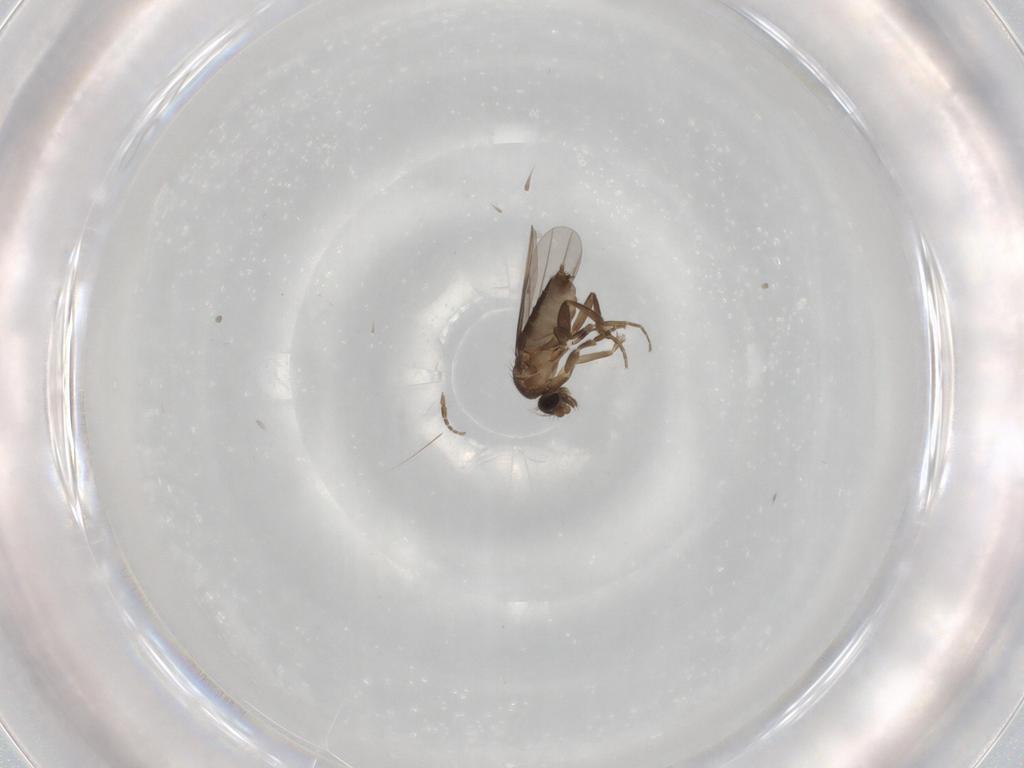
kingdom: Animalia
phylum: Arthropoda
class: Insecta
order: Diptera
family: Phoridae
